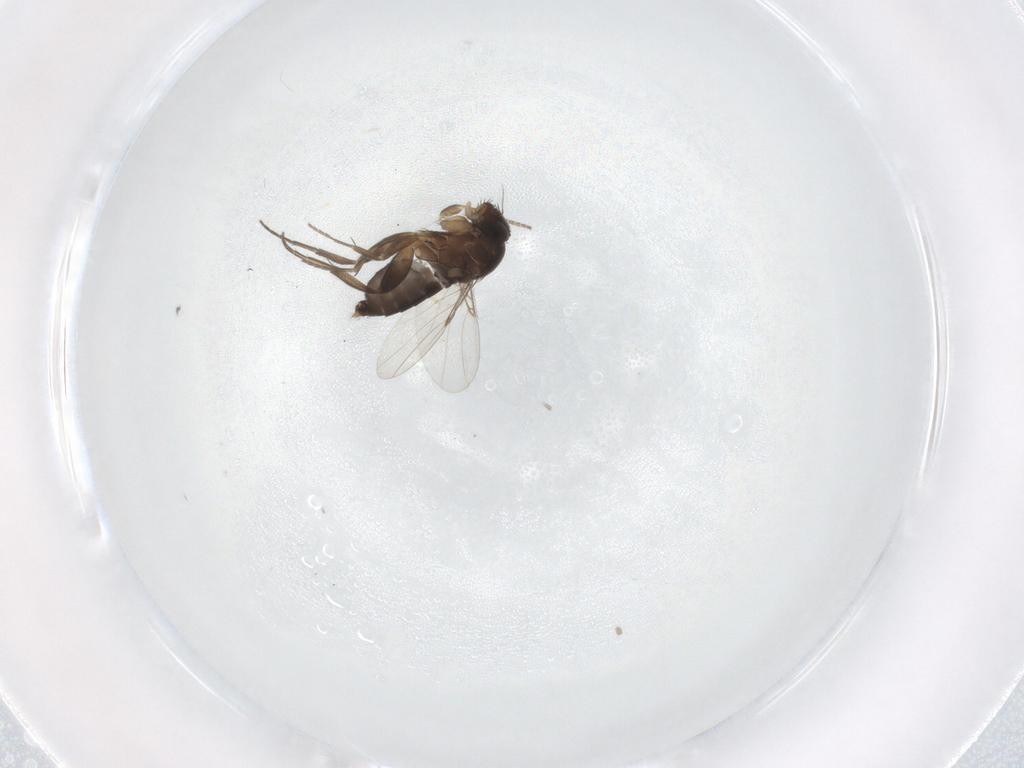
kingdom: Animalia
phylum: Arthropoda
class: Insecta
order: Diptera
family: Phoridae
